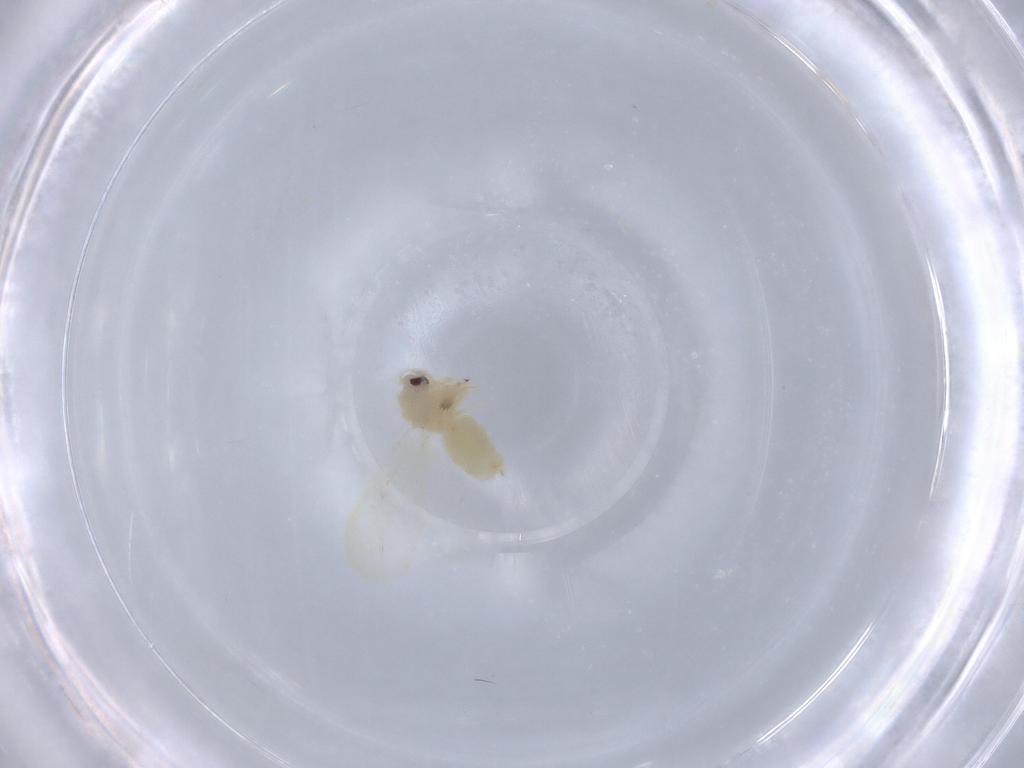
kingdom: Animalia
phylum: Arthropoda
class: Insecta
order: Hemiptera
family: Aleyrodidae
